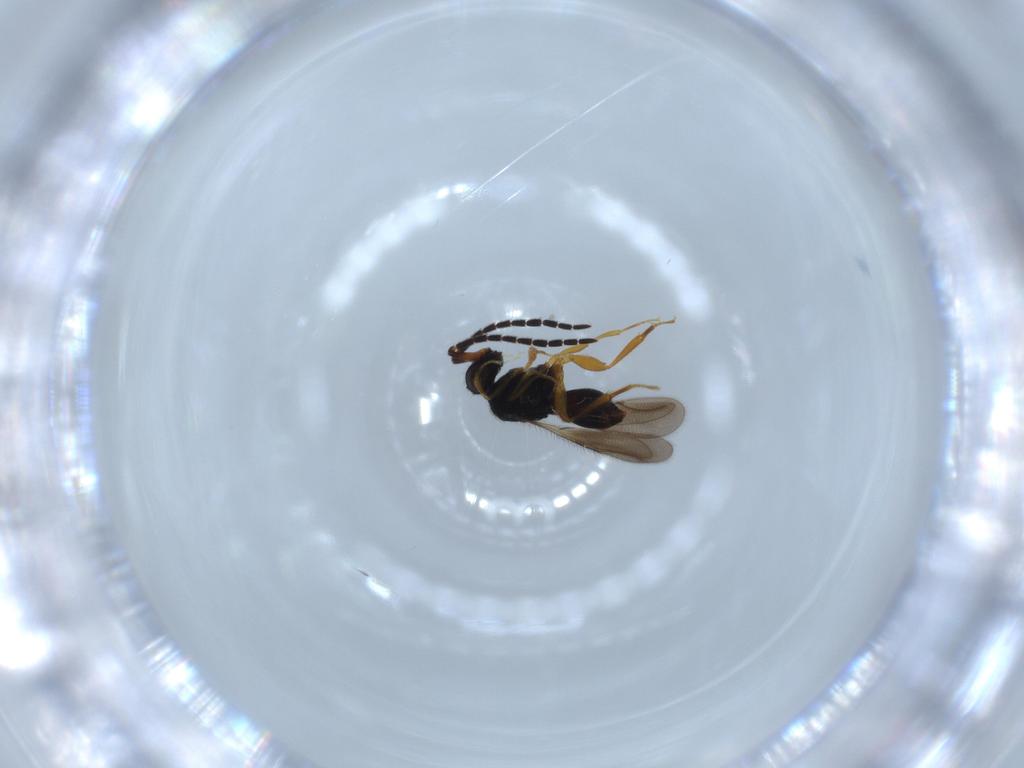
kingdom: Animalia
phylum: Arthropoda
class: Insecta
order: Hymenoptera
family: Ceraphronidae
